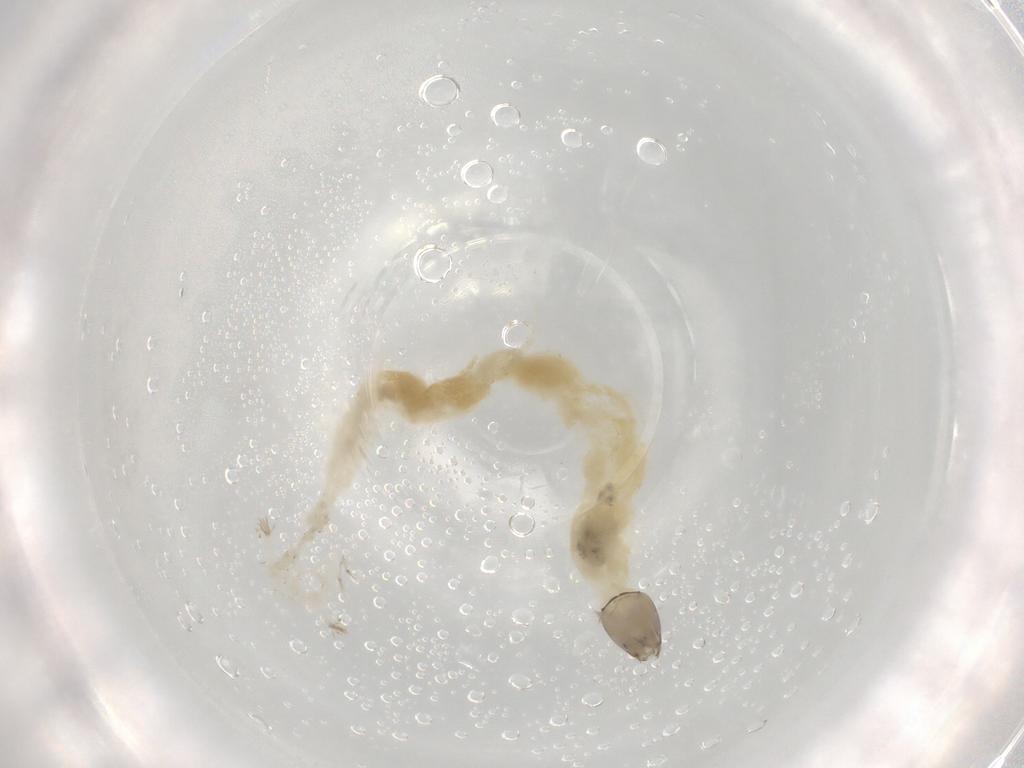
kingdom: Animalia
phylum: Arthropoda
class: Insecta
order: Diptera
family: Chironomidae
